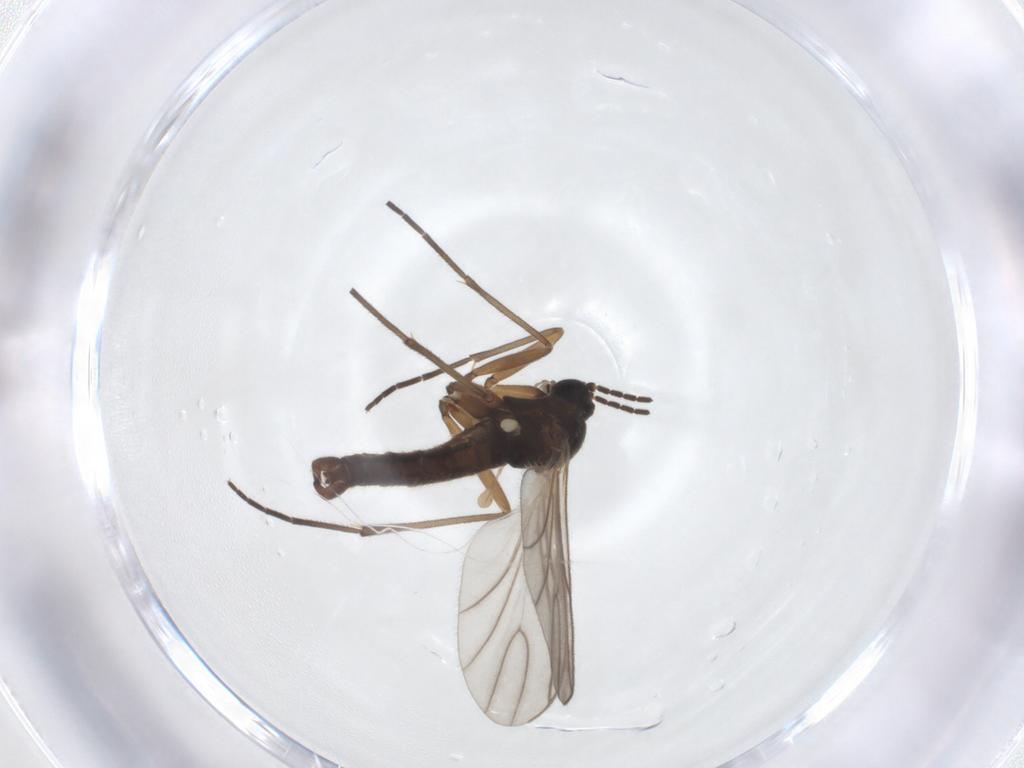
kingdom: Animalia
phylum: Arthropoda
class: Insecta
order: Diptera
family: Sciaridae
